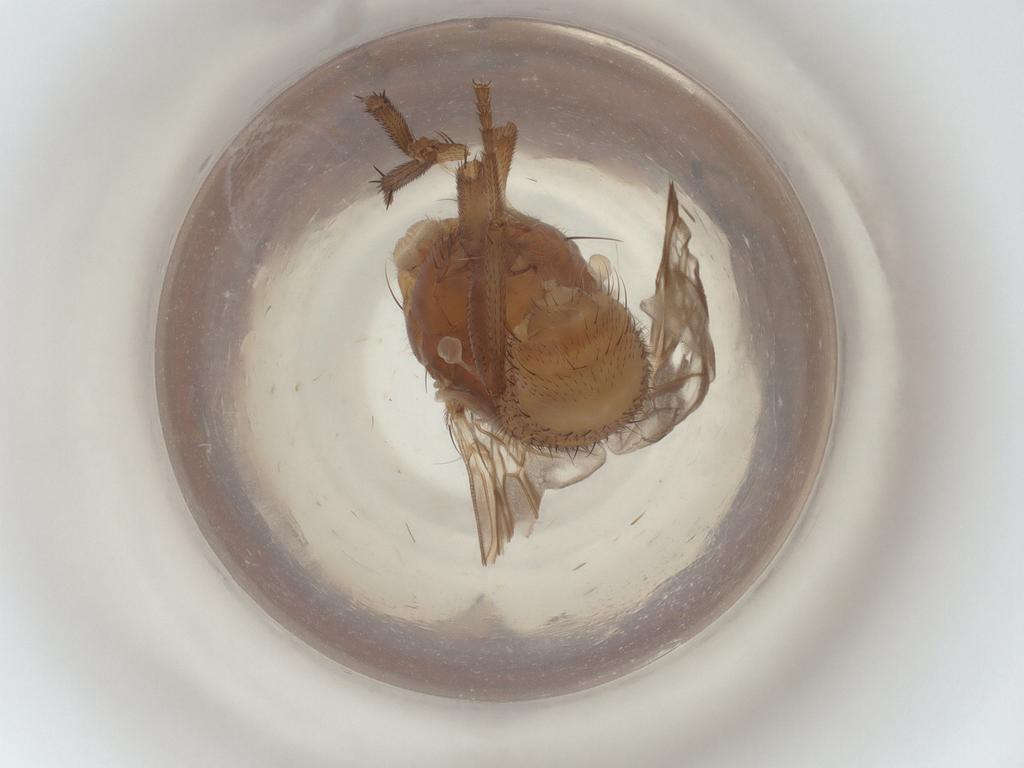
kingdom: Animalia
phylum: Arthropoda
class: Insecta
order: Diptera
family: Lauxaniidae
